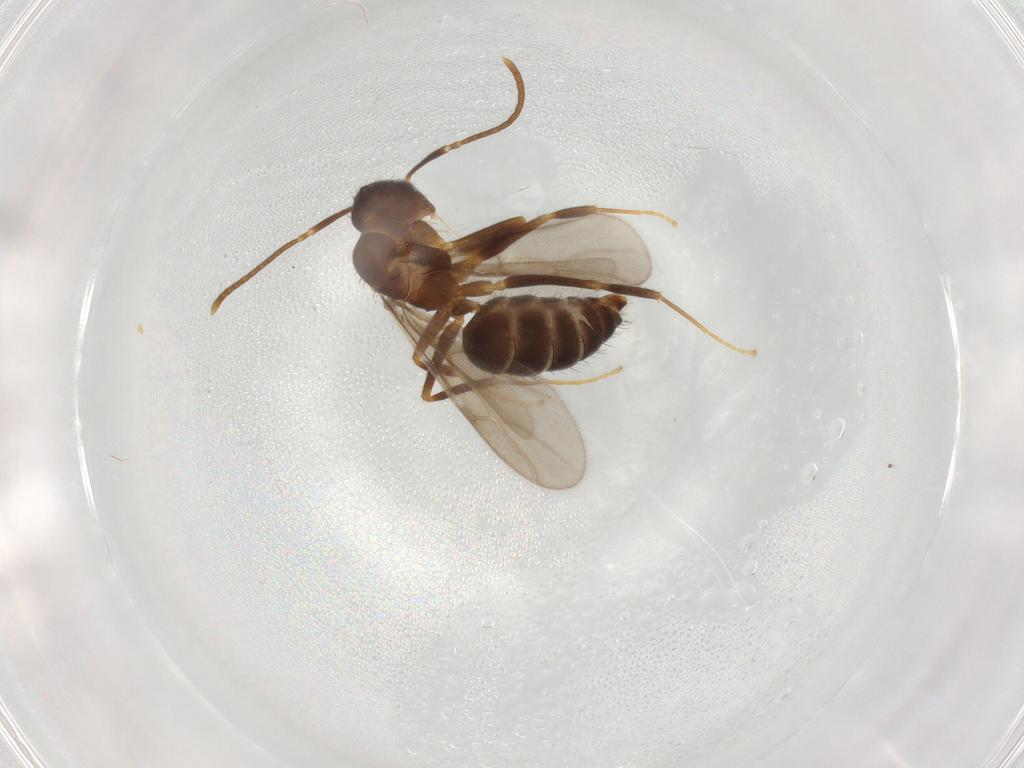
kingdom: Animalia
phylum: Arthropoda
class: Insecta
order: Hymenoptera
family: Formicidae
